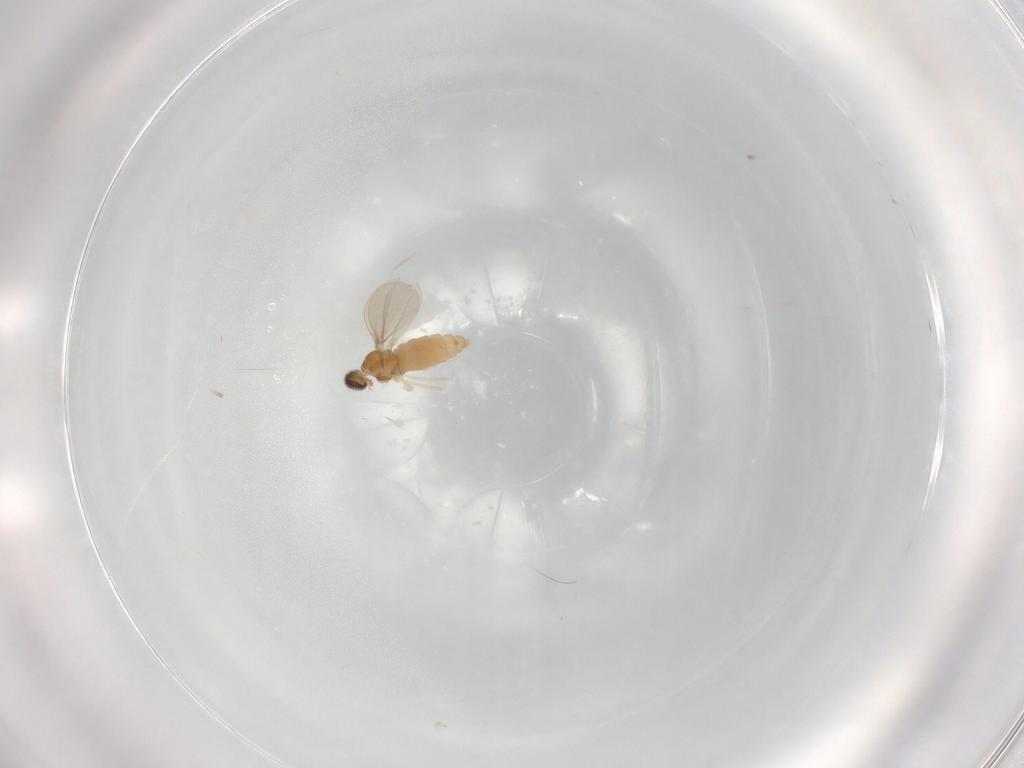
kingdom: Animalia
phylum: Arthropoda
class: Insecta
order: Diptera
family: Cecidomyiidae
